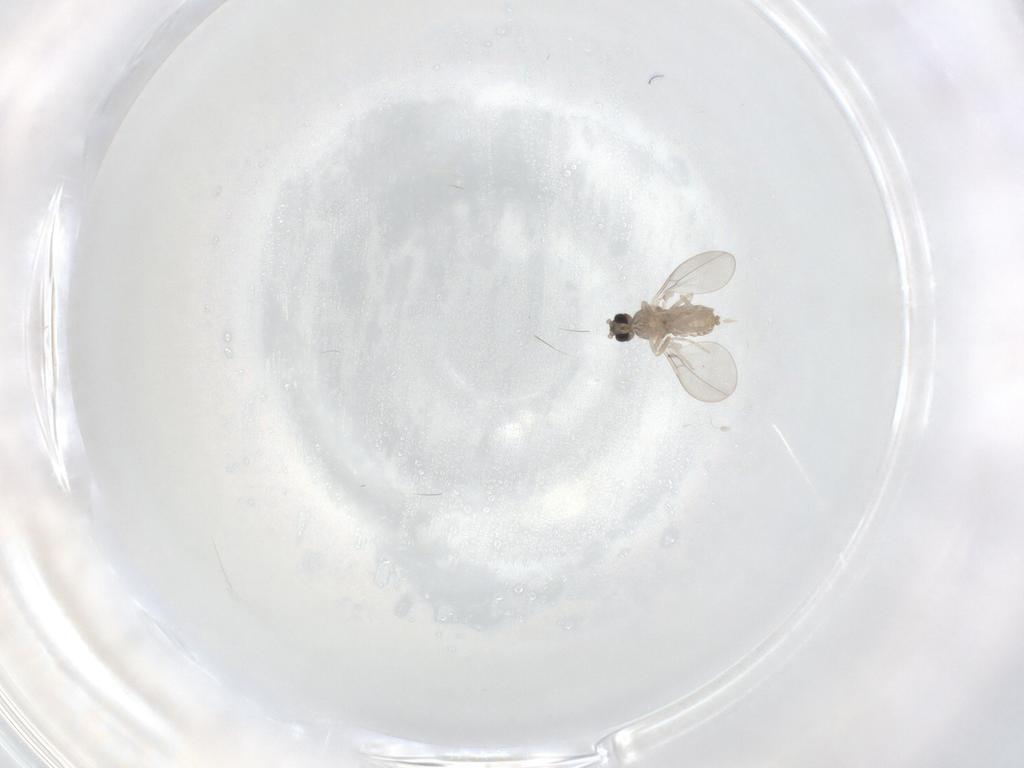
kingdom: Animalia
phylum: Arthropoda
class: Insecta
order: Diptera
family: Cecidomyiidae
